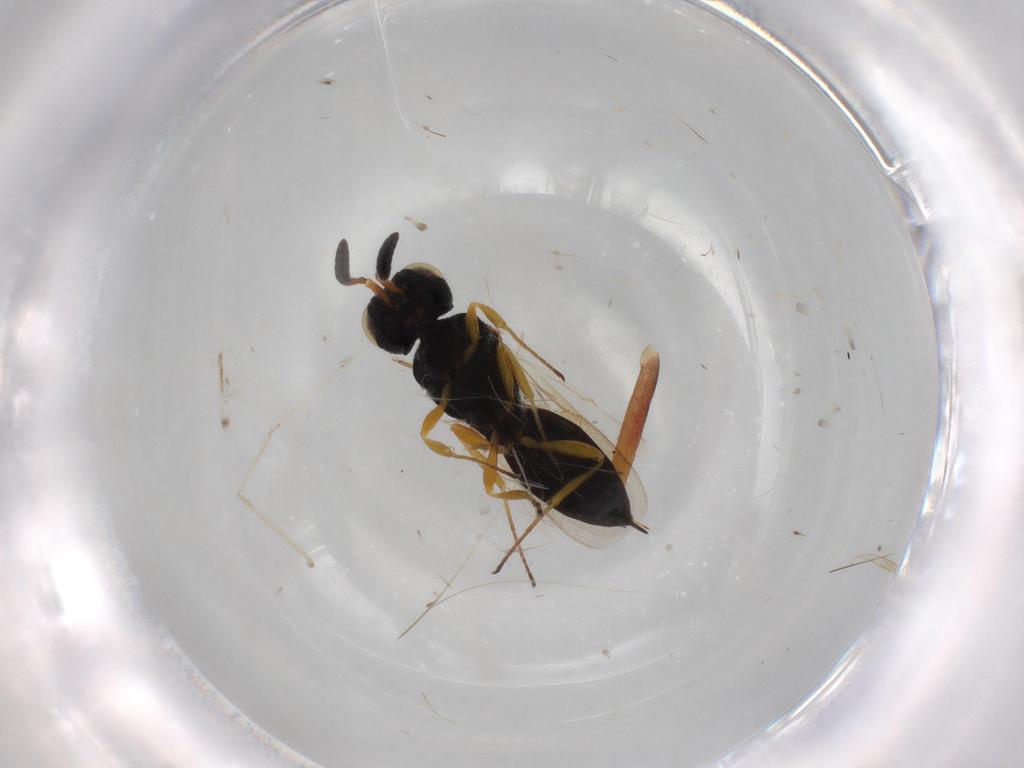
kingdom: Animalia
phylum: Arthropoda
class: Insecta
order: Hymenoptera
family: Scelionidae
